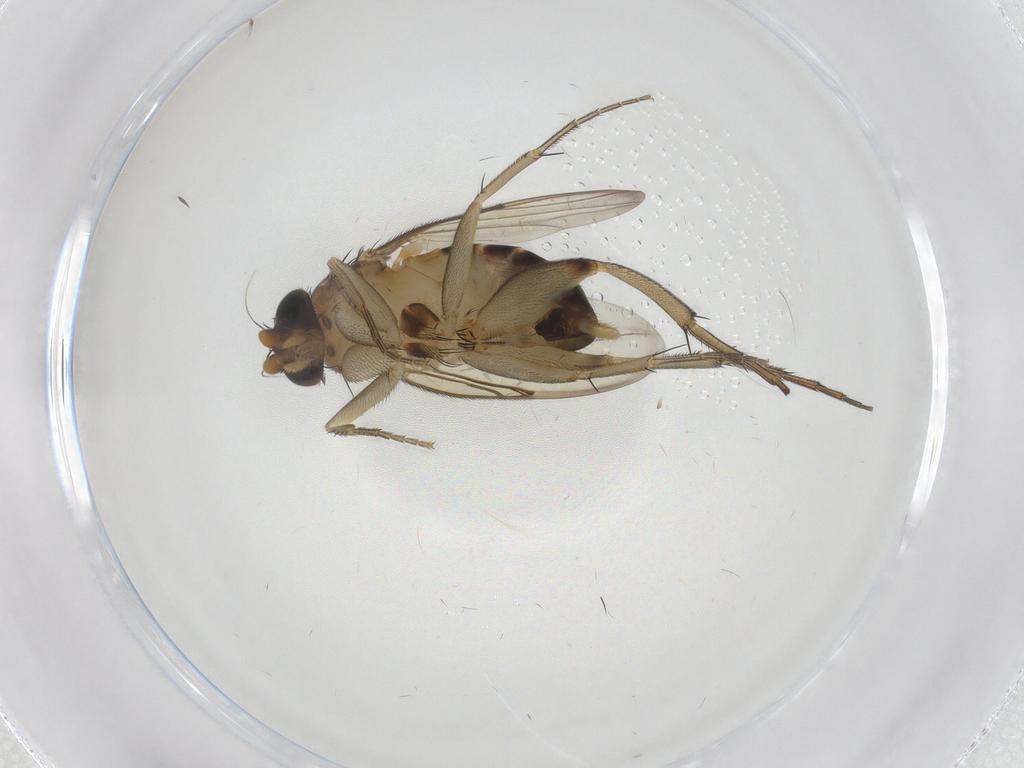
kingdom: Animalia
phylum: Arthropoda
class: Insecta
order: Diptera
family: Phoridae
